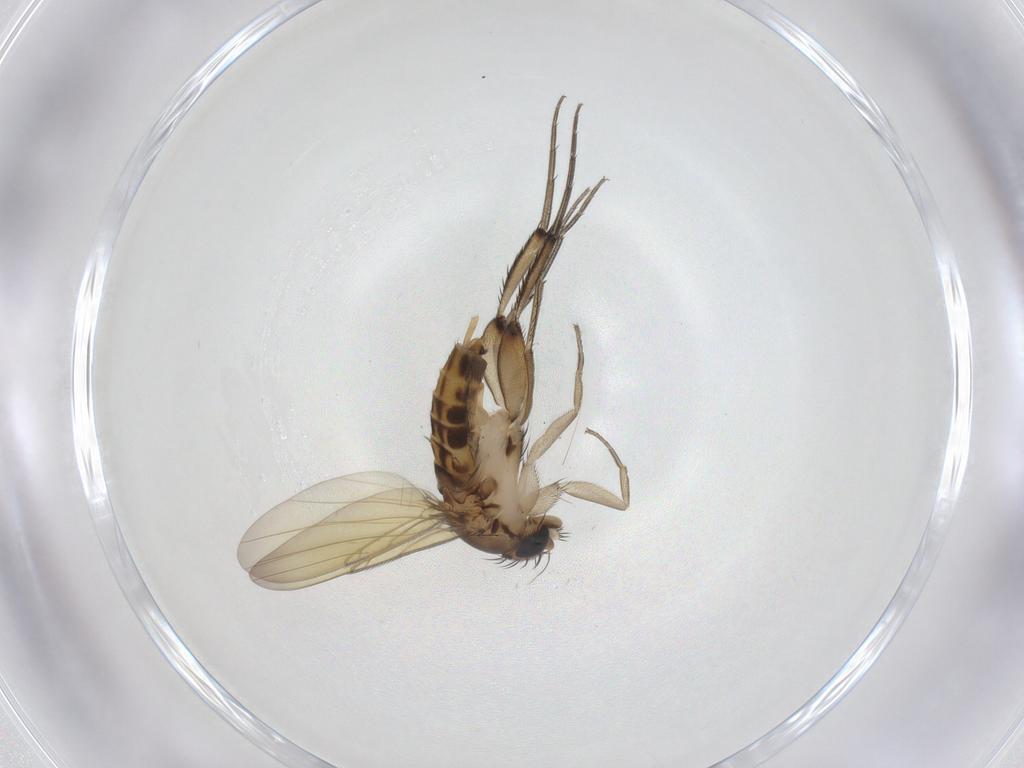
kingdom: Animalia
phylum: Arthropoda
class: Insecta
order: Diptera
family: Phoridae
